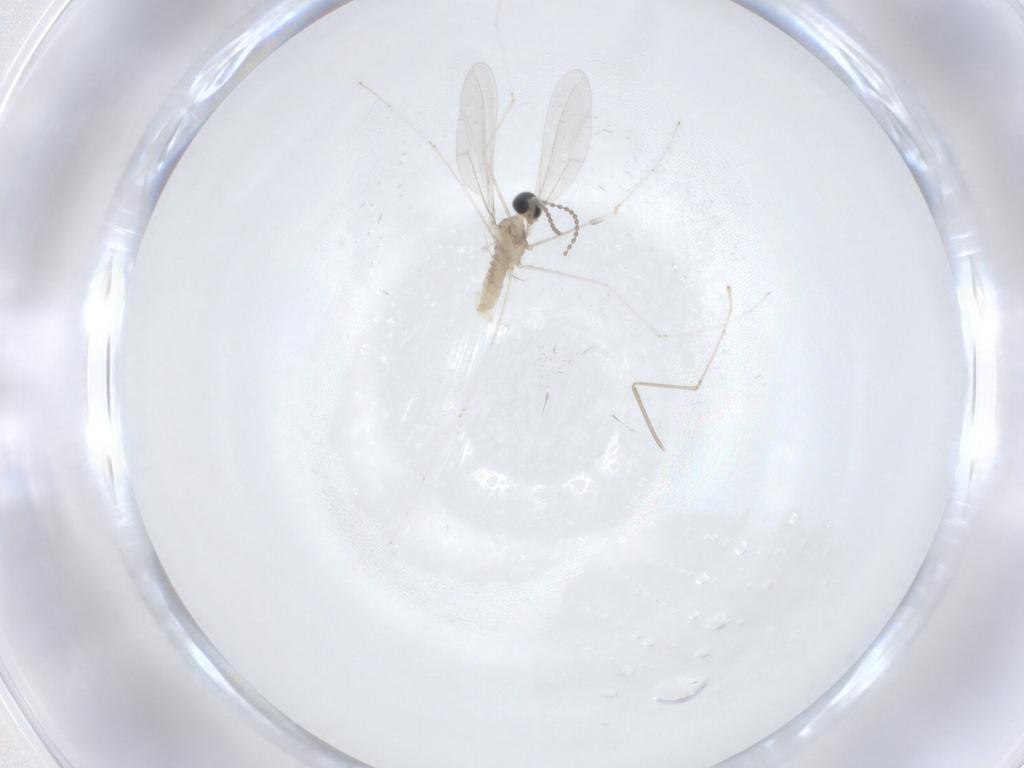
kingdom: Animalia
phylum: Arthropoda
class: Insecta
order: Diptera
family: Cecidomyiidae
